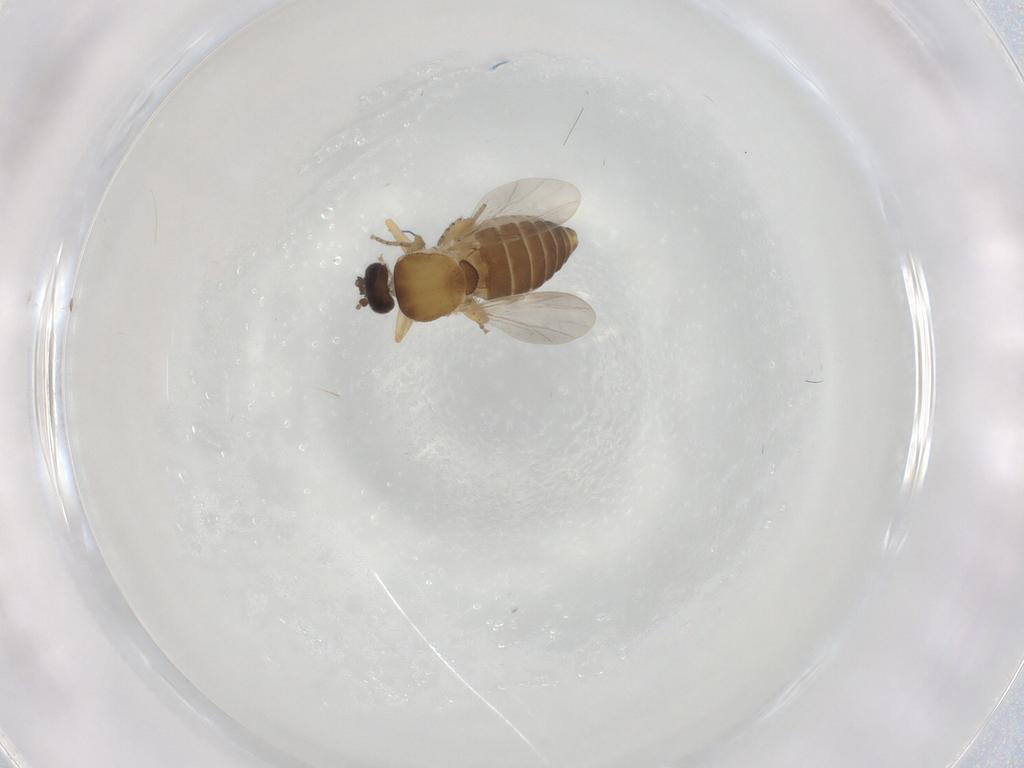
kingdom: Animalia
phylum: Arthropoda
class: Insecta
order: Diptera
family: Ceratopogonidae
